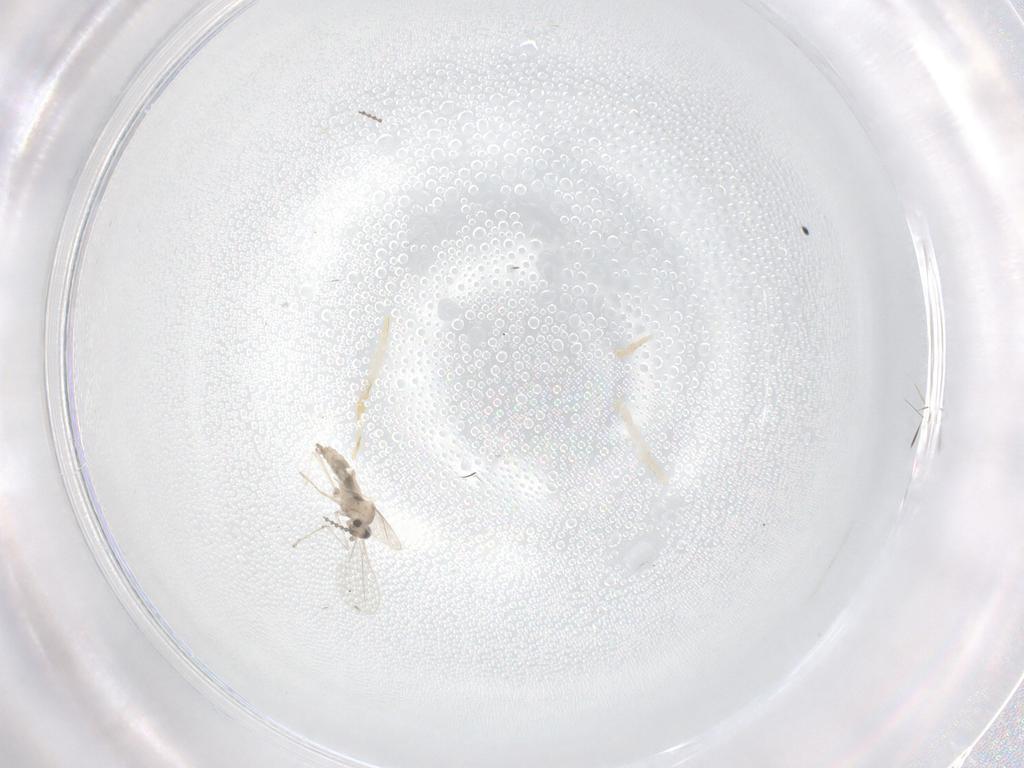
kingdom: Animalia
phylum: Arthropoda
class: Insecta
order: Diptera
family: Cecidomyiidae
